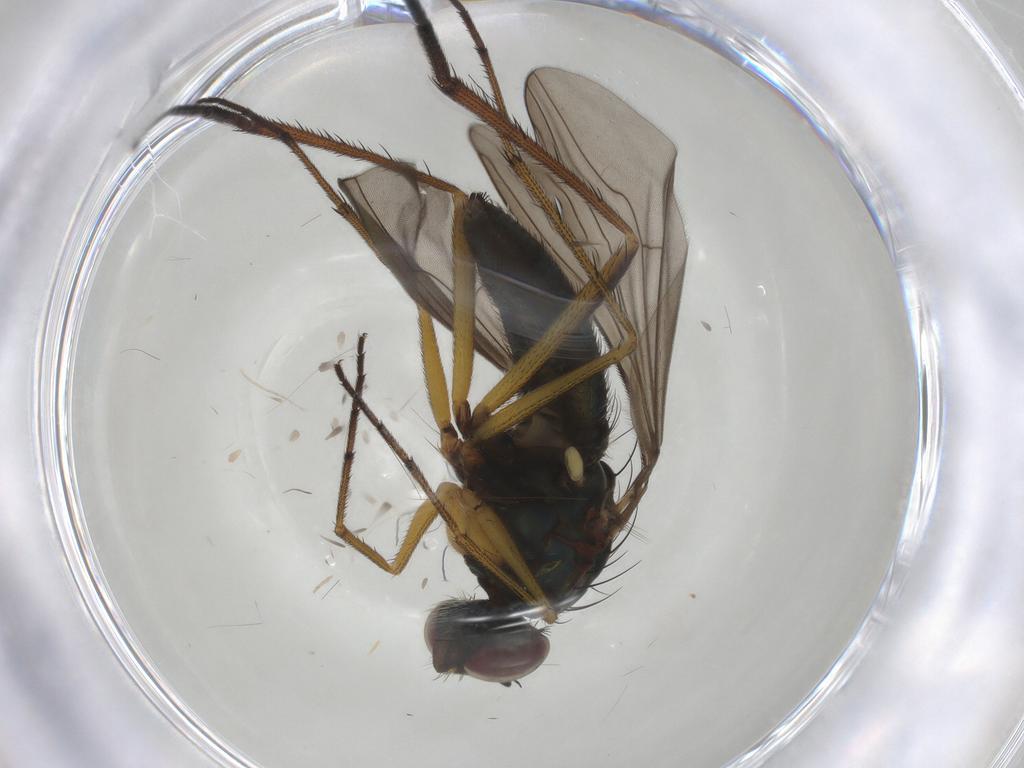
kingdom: Animalia
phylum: Arthropoda
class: Insecta
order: Diptera
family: Dolichopodidae
